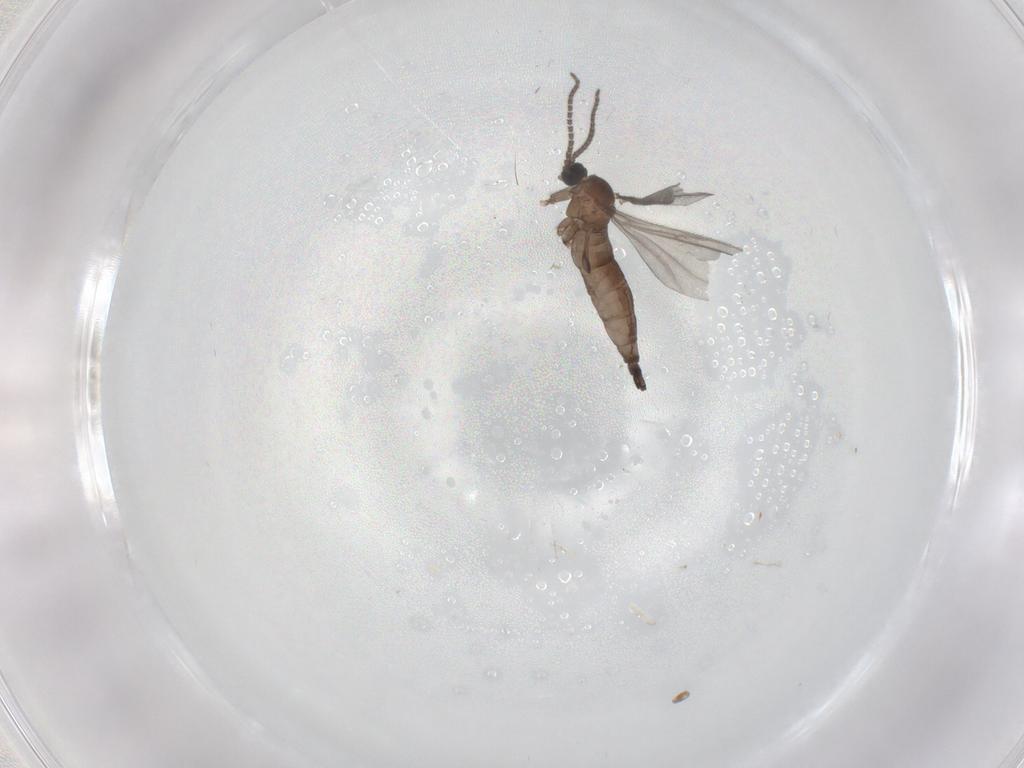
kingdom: Animalia
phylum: Arthropoda
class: Insecta
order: Diptera
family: Sciaridae
